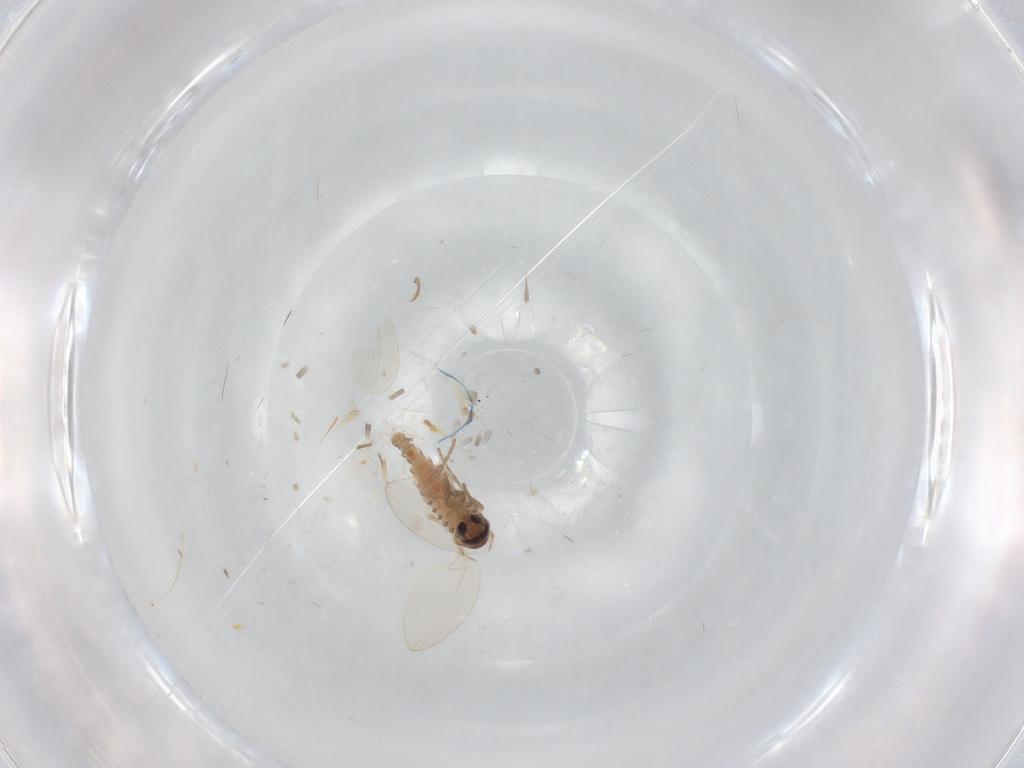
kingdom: Animalia
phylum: Arthropoda
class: Insecta
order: Diptera
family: Psychodidae
